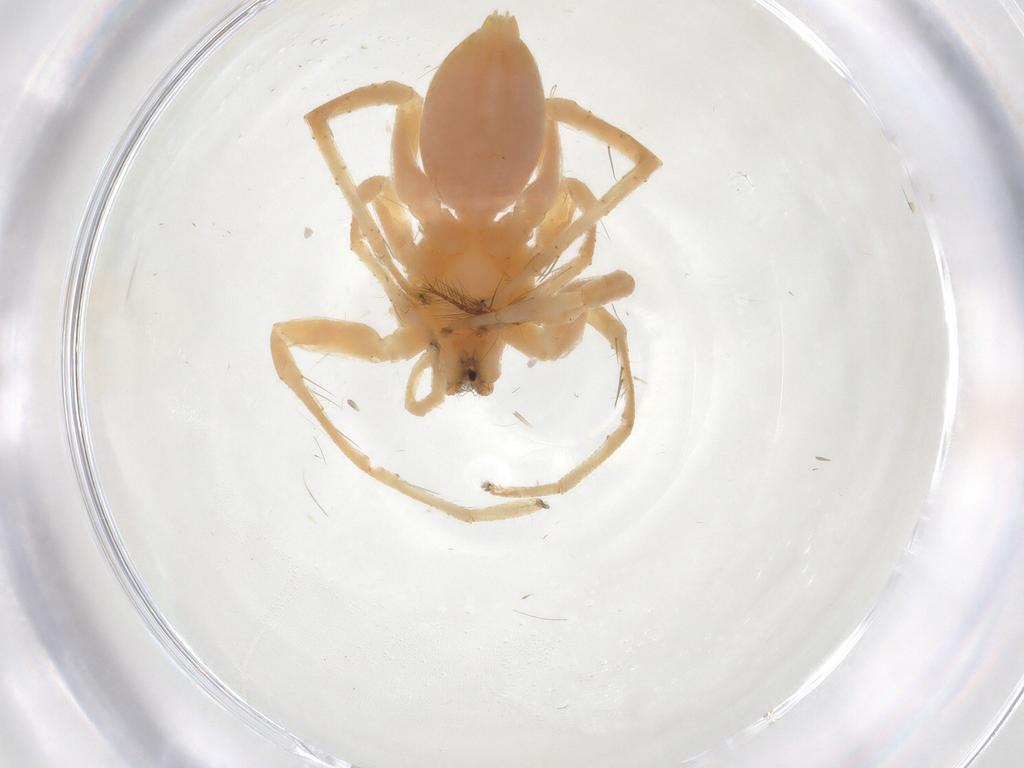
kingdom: Animalia
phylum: Arthropoda
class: Arachnida
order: Araneae
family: Anyphaenidae
